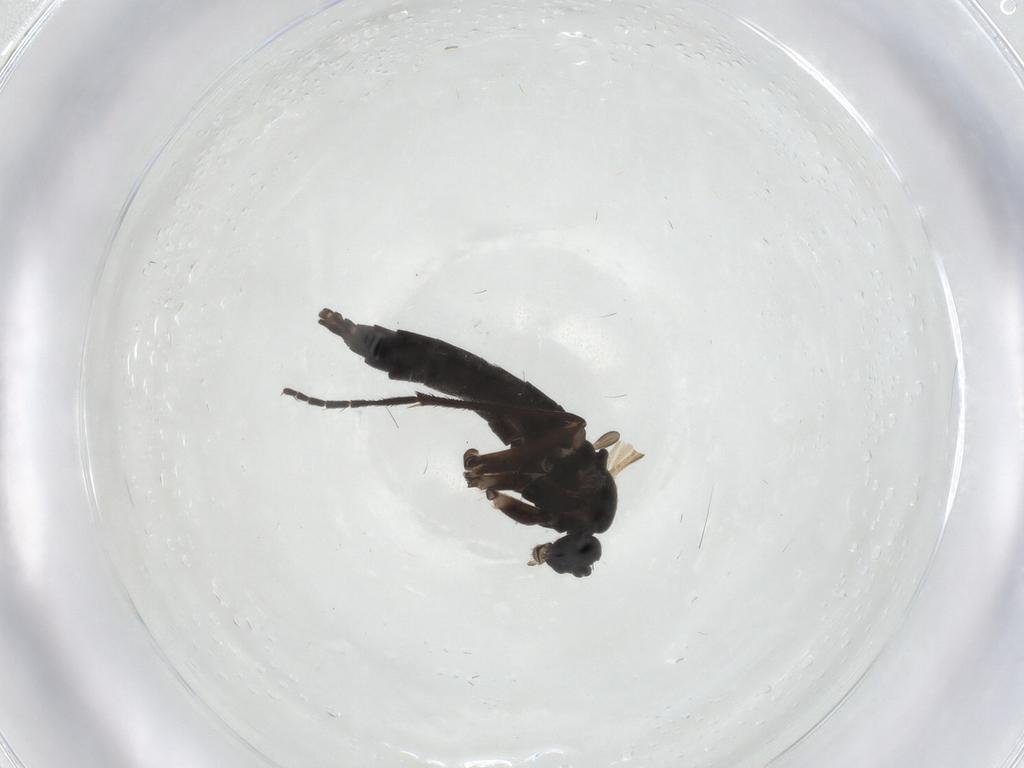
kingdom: Animalia
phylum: Arthropoda
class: Insecta
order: Diptera
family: Sciaridae
